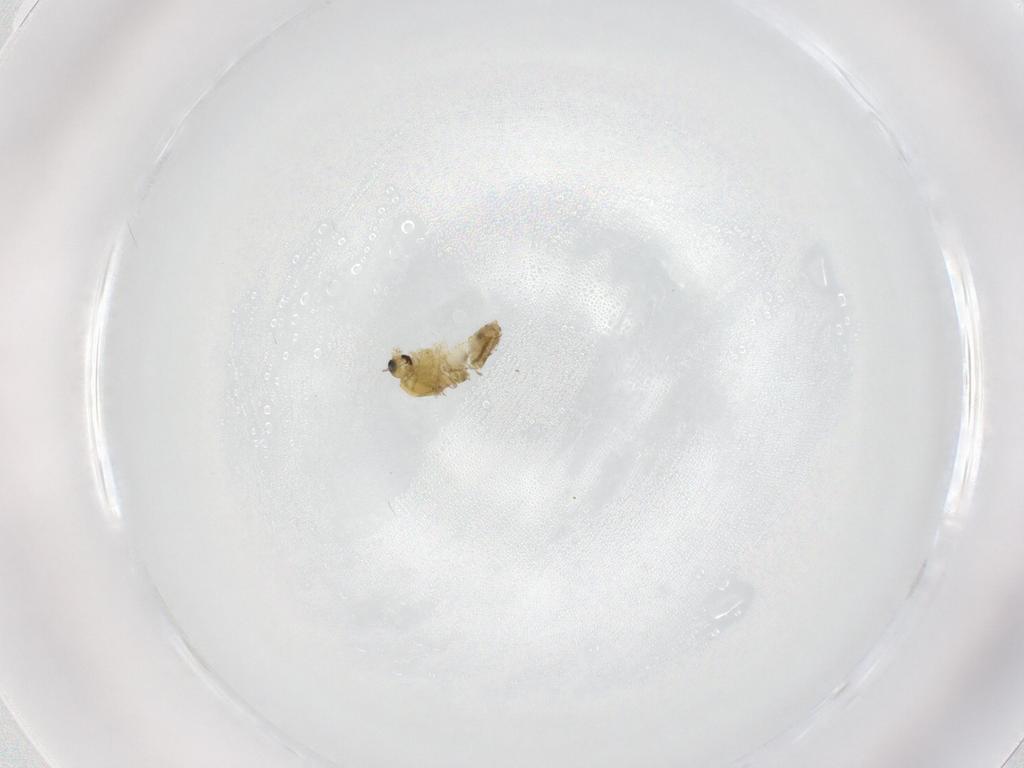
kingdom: Animalia
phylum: Arthropoda
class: Insecta
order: Diptera
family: Chironomidae
